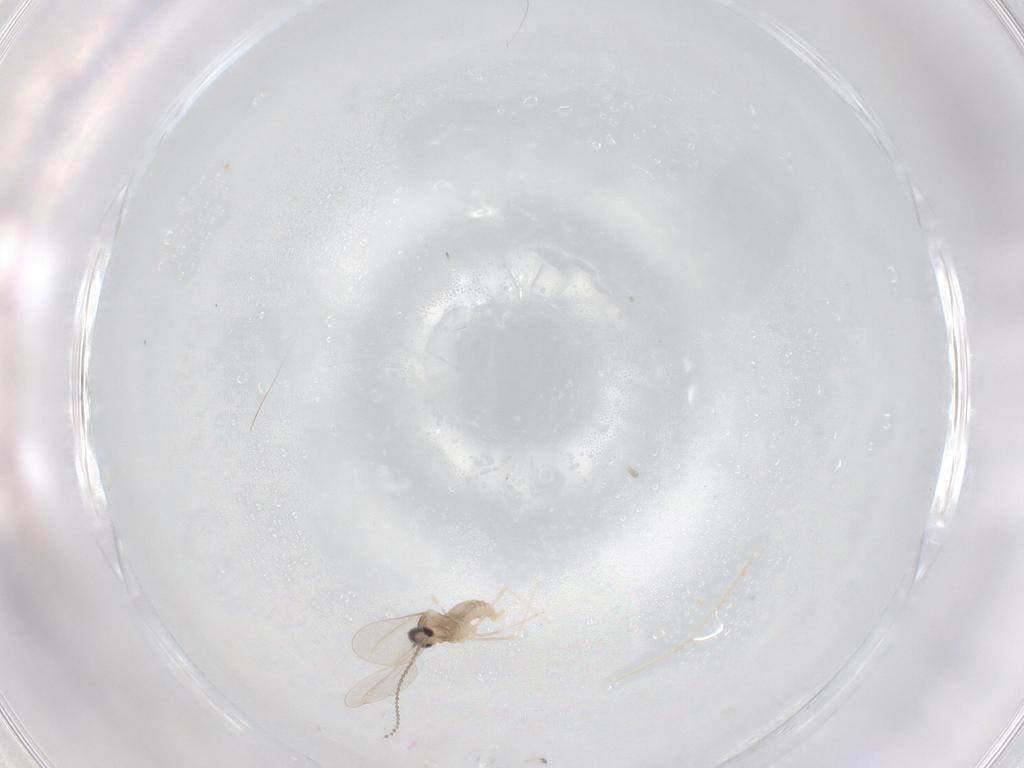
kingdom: Animalia
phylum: Arthropoda
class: Insecta
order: Diptera
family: Cecidomyiidae
